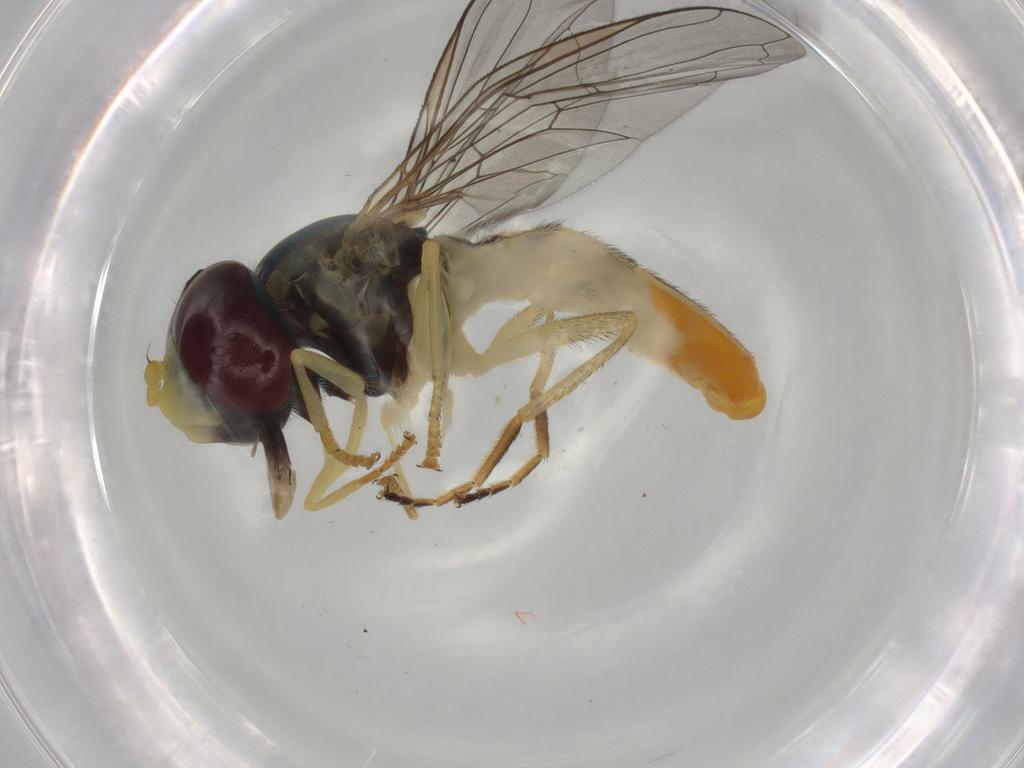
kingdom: Animalia
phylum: Arthropoda
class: Insecta
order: Diptera
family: Syrphidae
